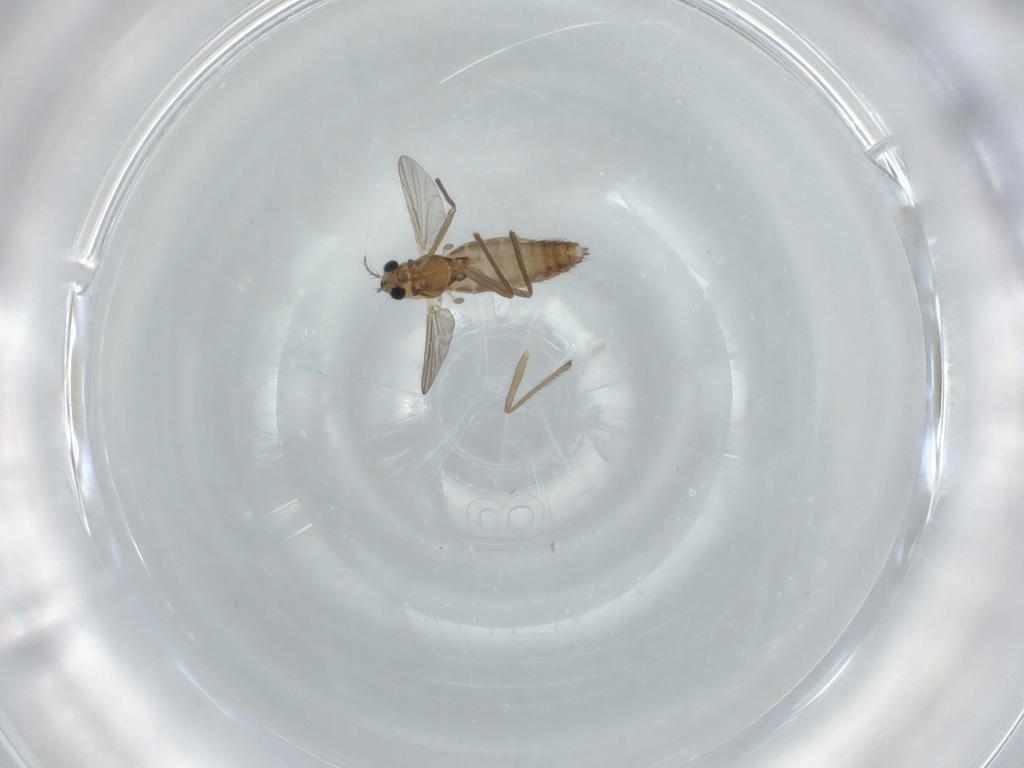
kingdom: Animalia
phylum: Arthropoda
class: Insecta
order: Diptera
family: Chironomidae
